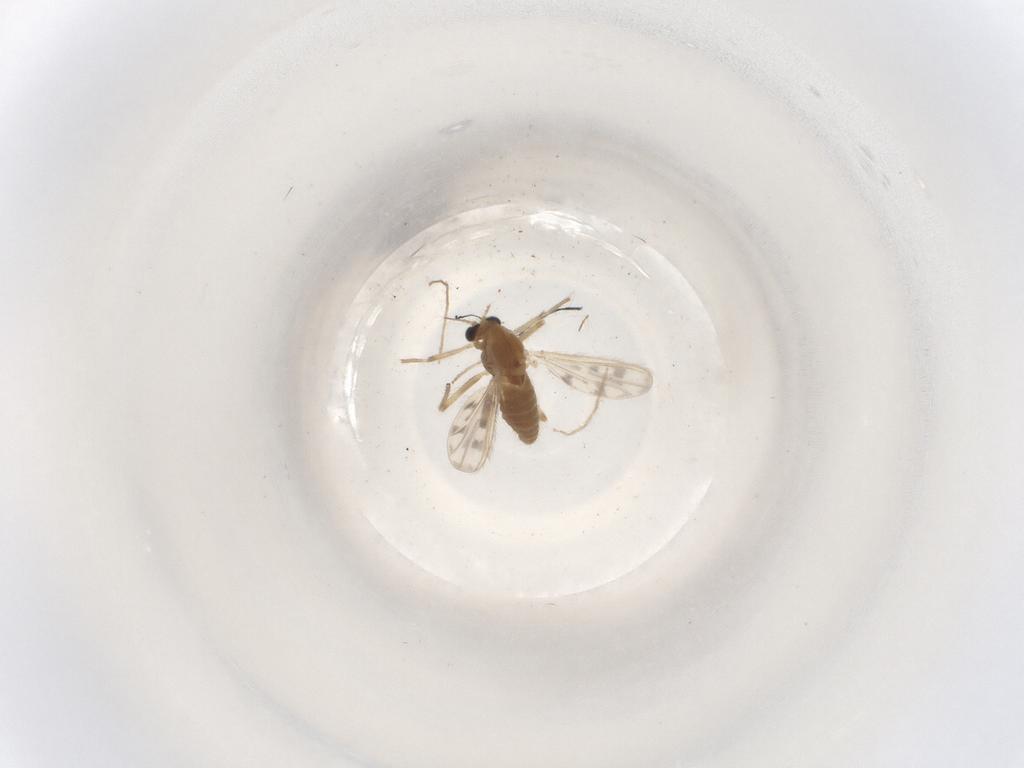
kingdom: Animalia
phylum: Arthropoda
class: Insecta
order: Diptera
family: Chironomidae
